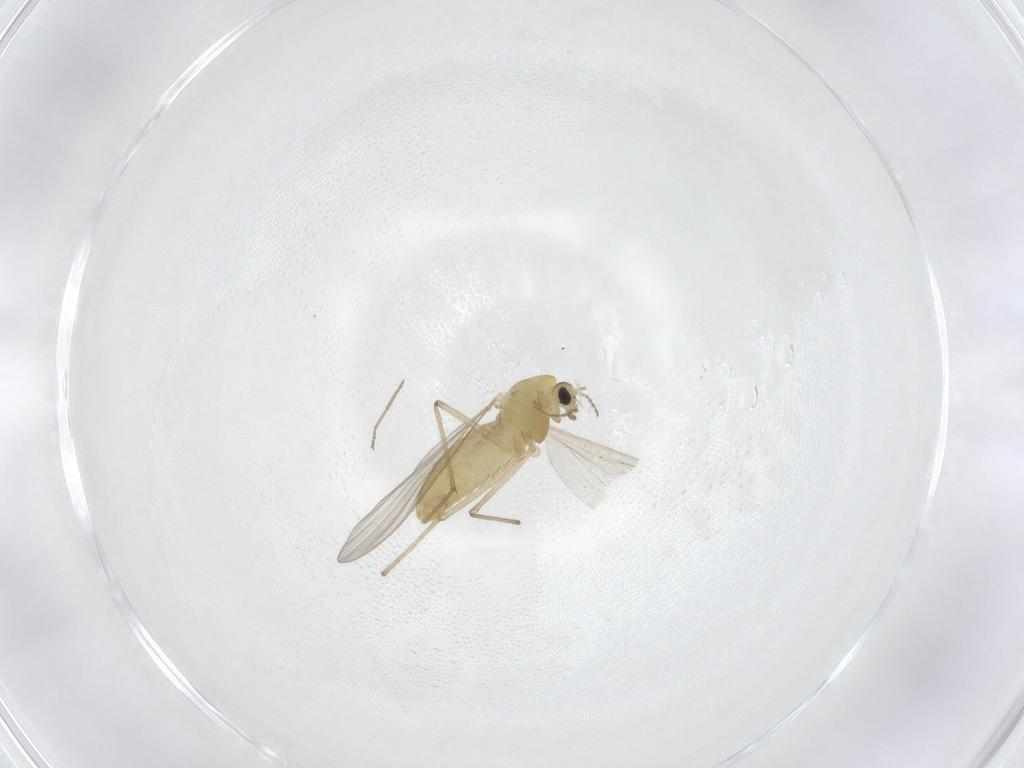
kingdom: Animalia
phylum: Arthropoda
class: Insecta
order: Diptera
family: Chironomidae
